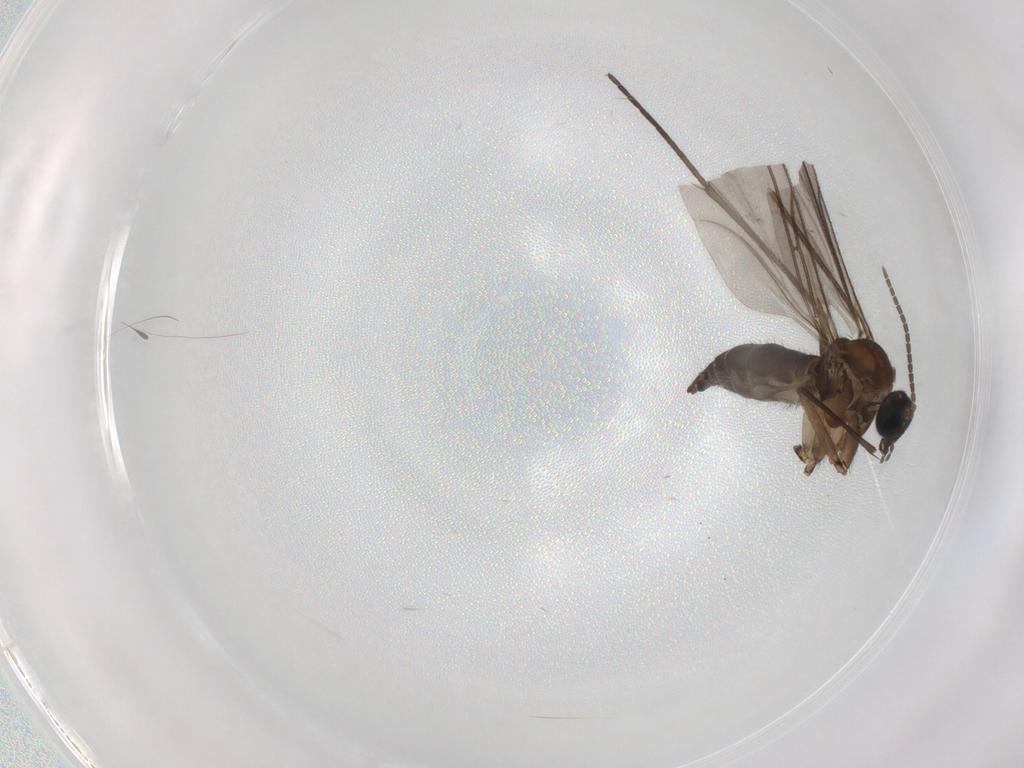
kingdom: Animalia
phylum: Arthropoda
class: Insecta
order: Diptera
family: Sciaridae
